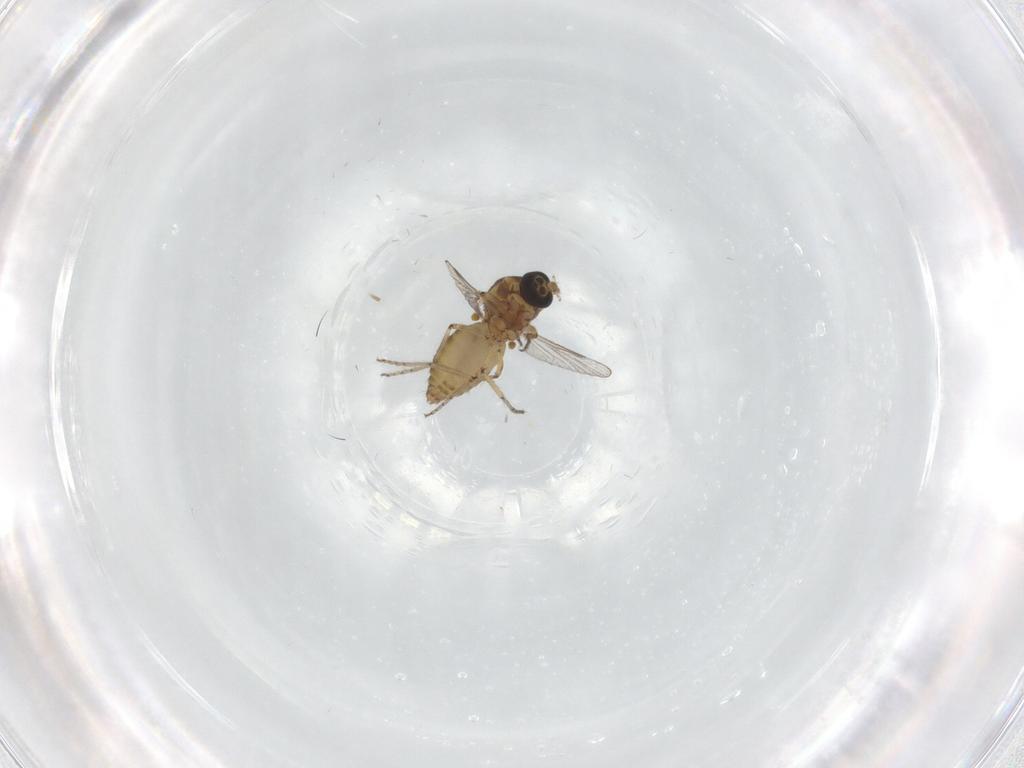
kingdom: Animalia
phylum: Arthropoda
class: Insecta
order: Diptera
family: Ceratopogonidae
